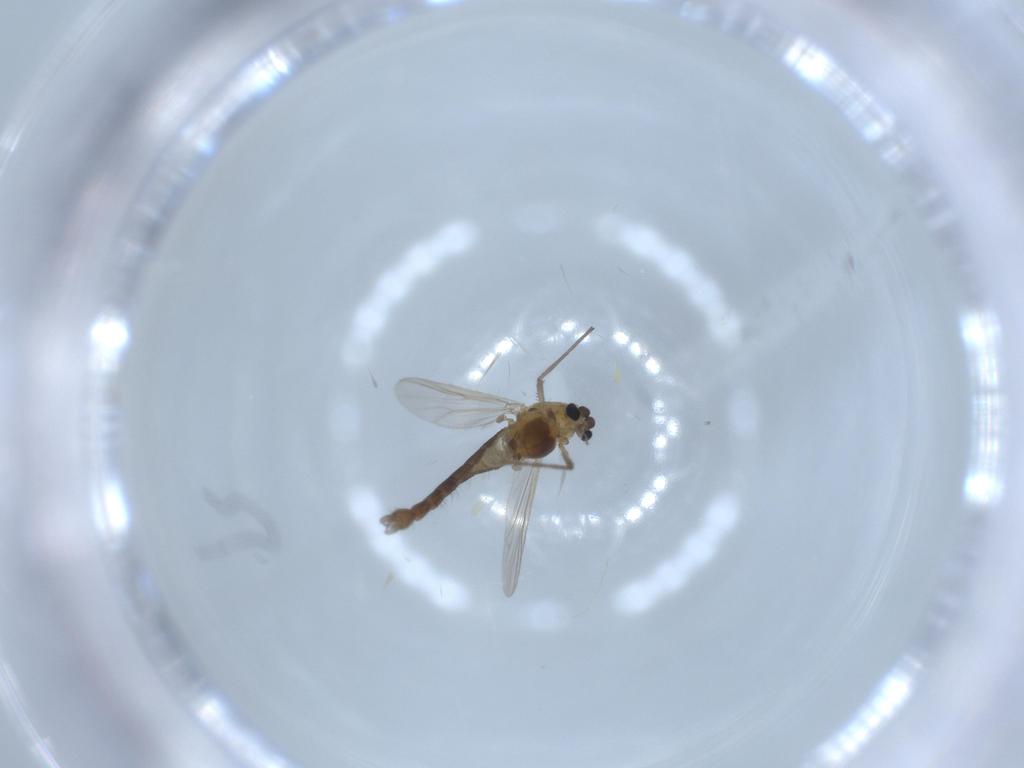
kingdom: Animalia
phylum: Arthropoda
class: Insecta
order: Diptera
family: Chironomidae
